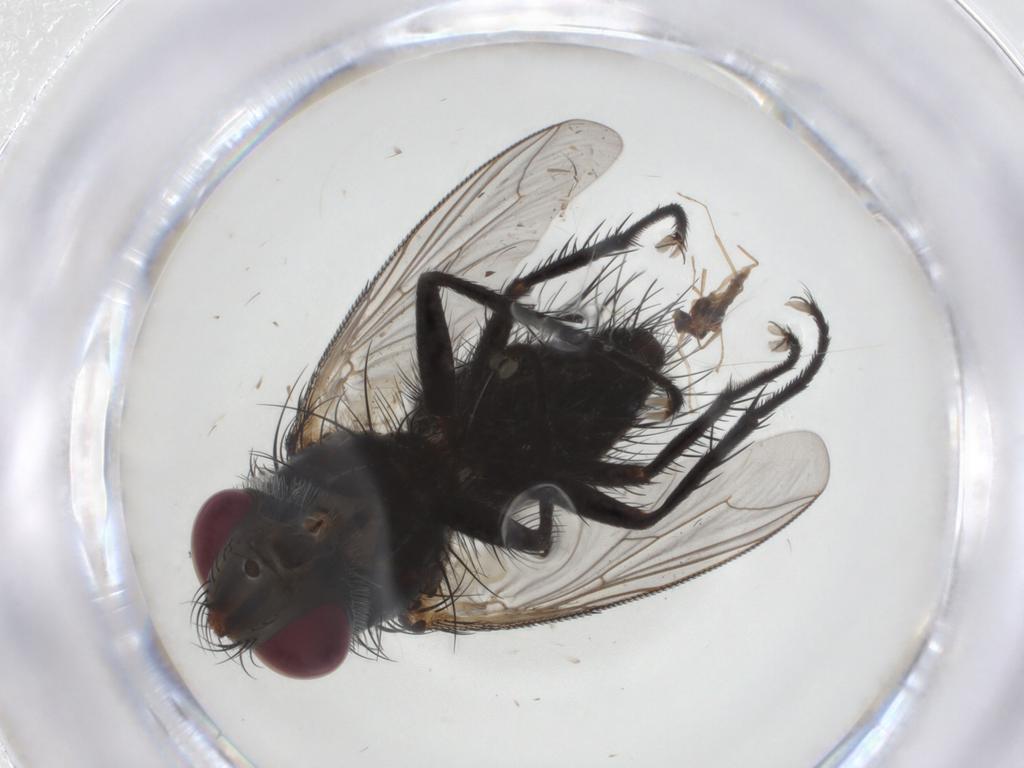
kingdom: Animalia
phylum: Arthropoda
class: Insecta
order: Diptera
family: Tachinidae
